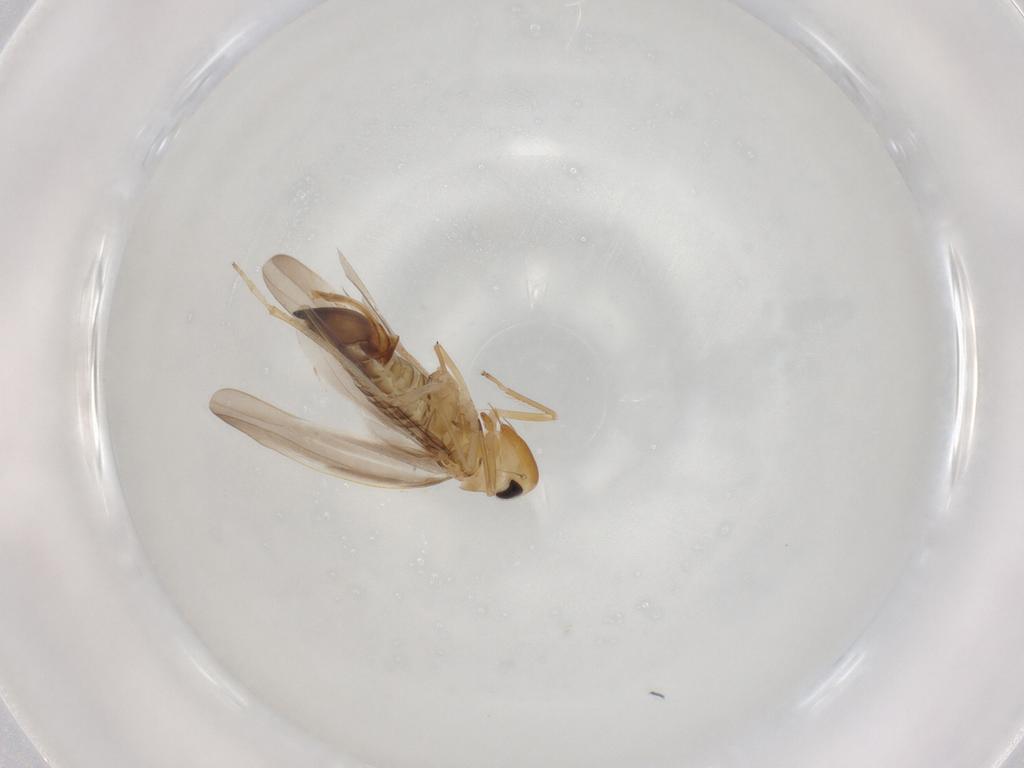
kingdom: Animalia
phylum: Arthropoda
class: Insecta
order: Hemiptera
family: Cicadellidae
